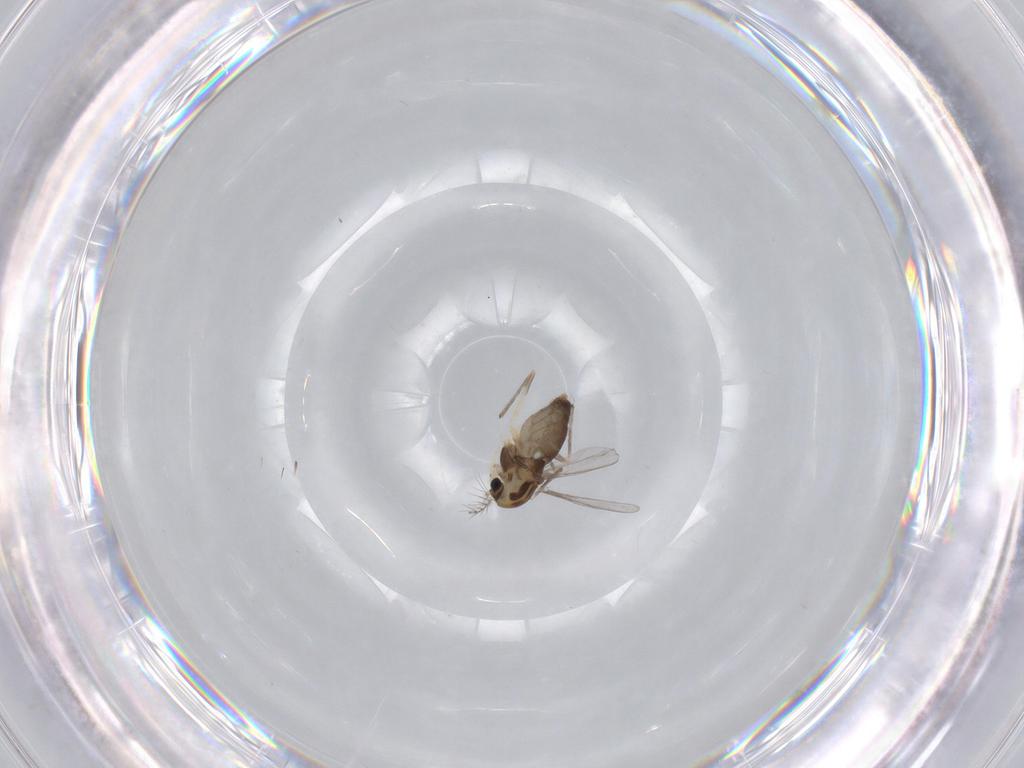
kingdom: Animalia
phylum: Arthropoda
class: Insecta
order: Diptera
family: Chironomidae
